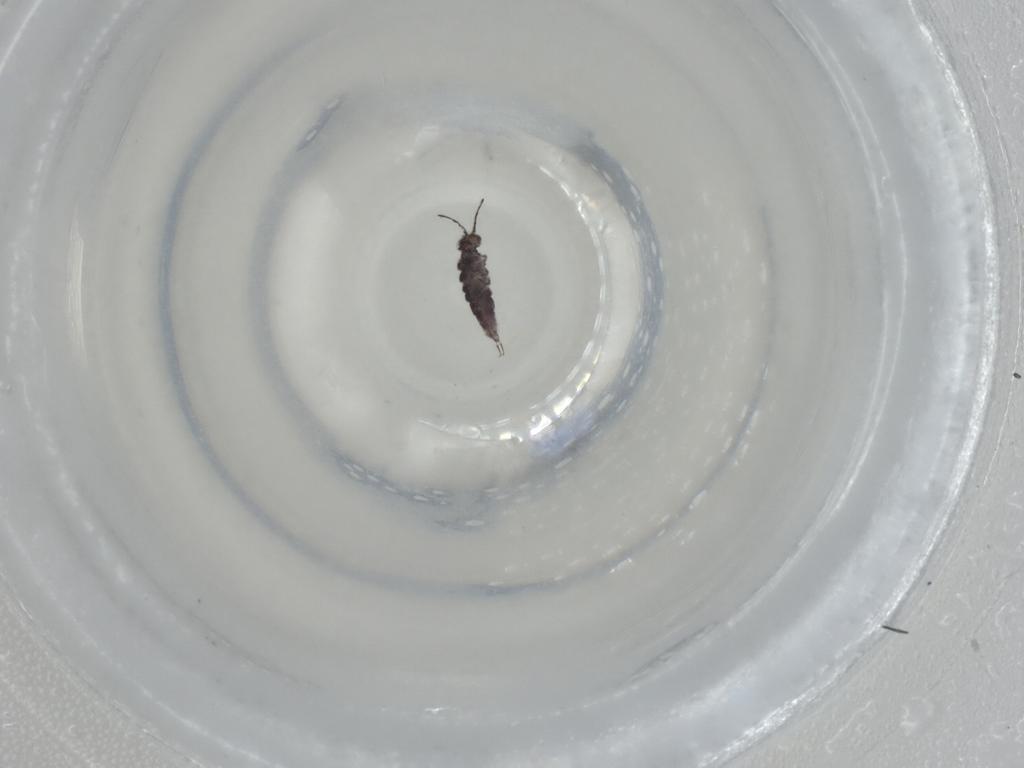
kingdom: Animalia
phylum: Arthropoda
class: Collembola
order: Entomobryomorpha
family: Isotomidae
